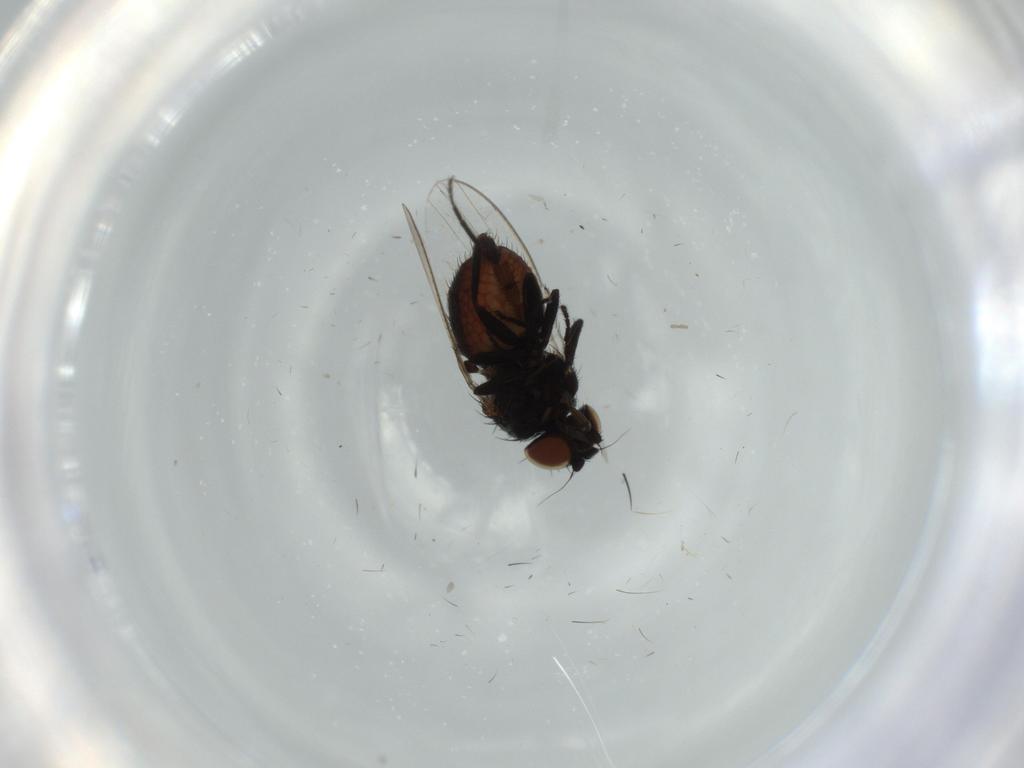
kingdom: Animalia
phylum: Arthropoda
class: Insecta
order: Diptera
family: Milichiidae
